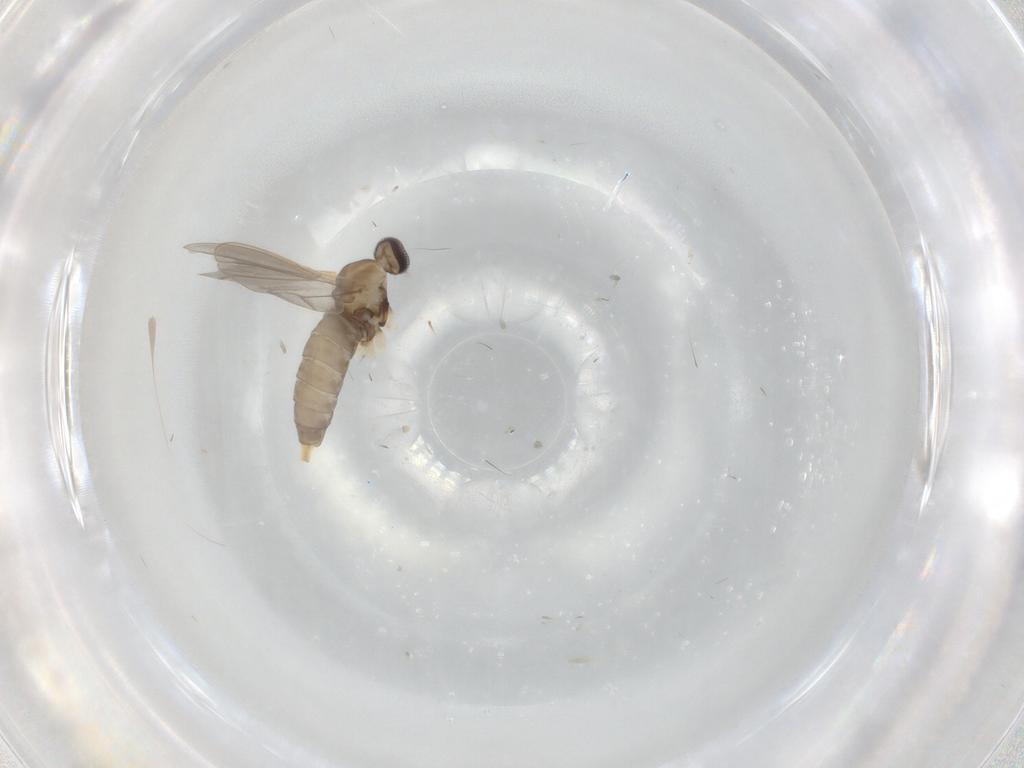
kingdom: Animalia
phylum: Arthropoda
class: Insecta
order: Diptera
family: Cecidomyiidae
